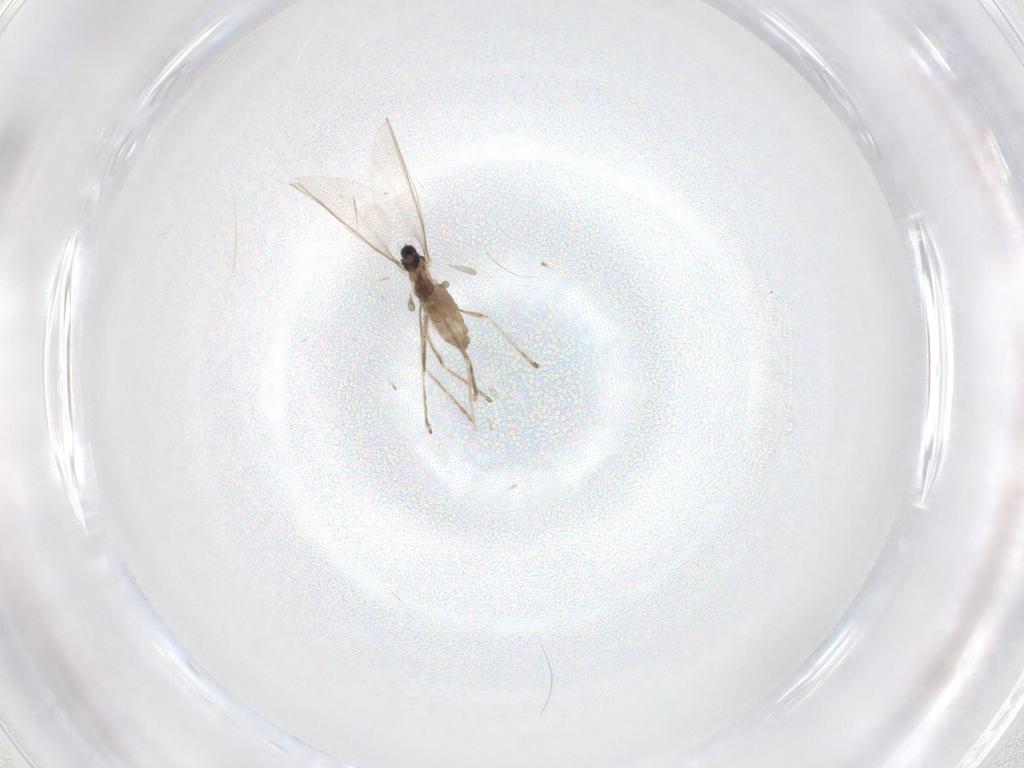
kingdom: Animalia
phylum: Arthropoda
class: Insecta
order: Diptera
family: Cecidomyiidae
